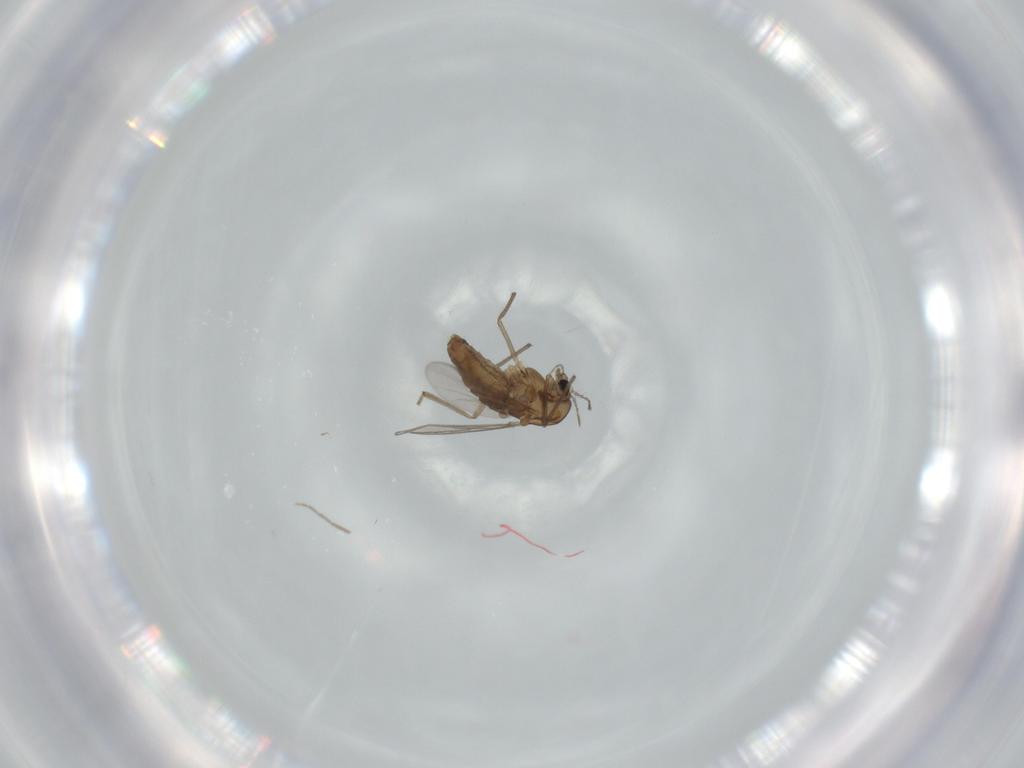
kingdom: Animalia
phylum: Arthropoda
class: Insecta
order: Diptera
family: Chironomidae
